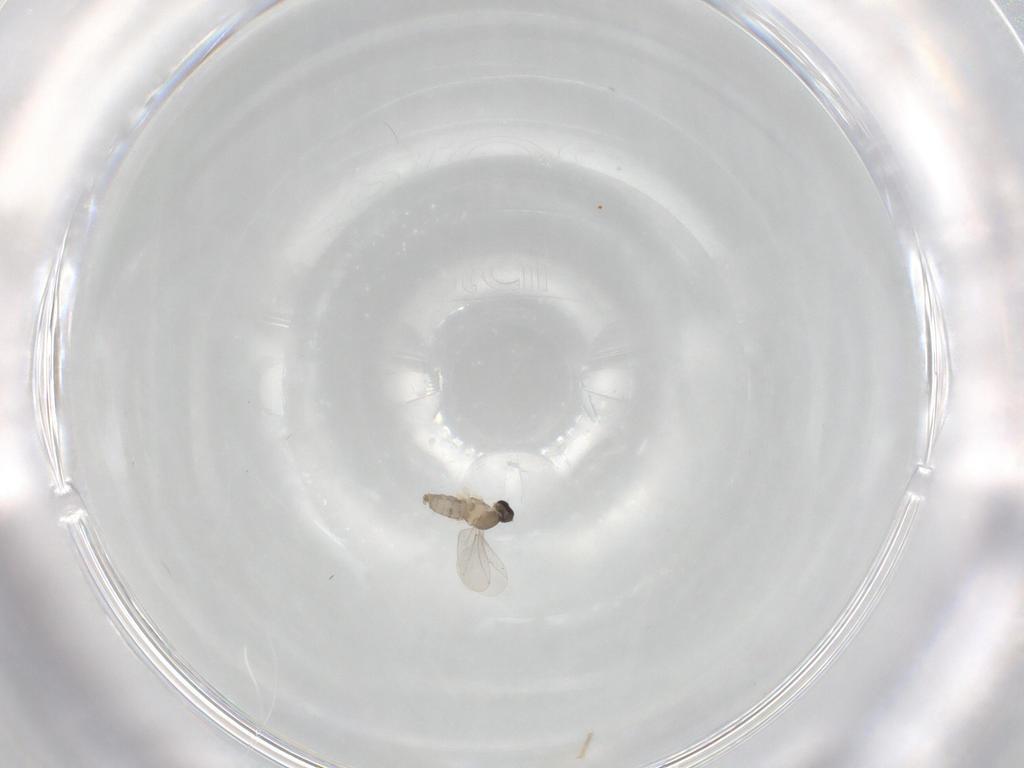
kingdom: Animalia
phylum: Arthropoda
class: Insecta
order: Diptera
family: Cecidomyiidae
